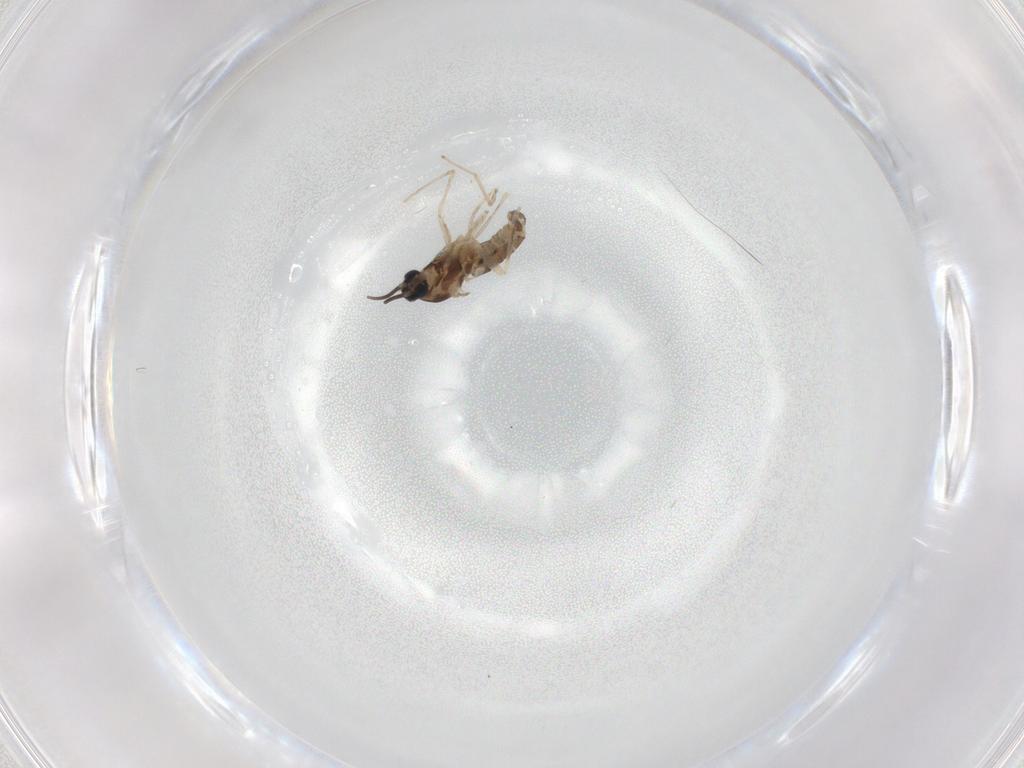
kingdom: Animalia
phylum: Arthropoda
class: Insecta
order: Diptera
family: Cecidomyiidae
